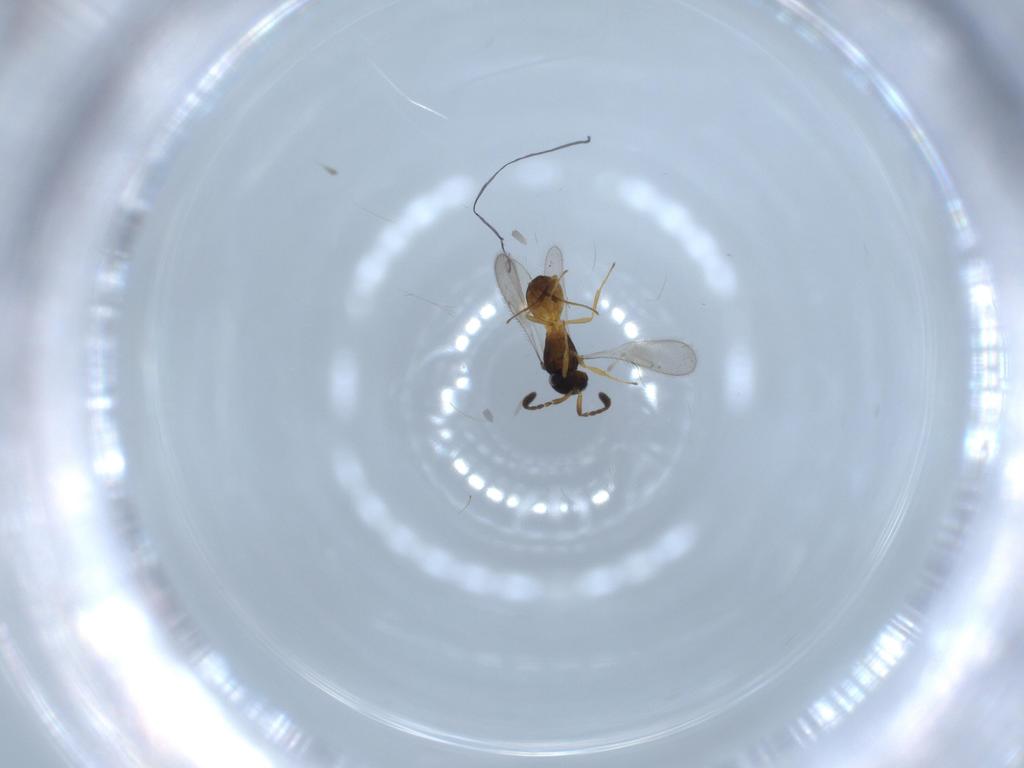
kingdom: Animalia
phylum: Arthropoda
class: Insecta
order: Hymenoptera
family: Scelionidae
